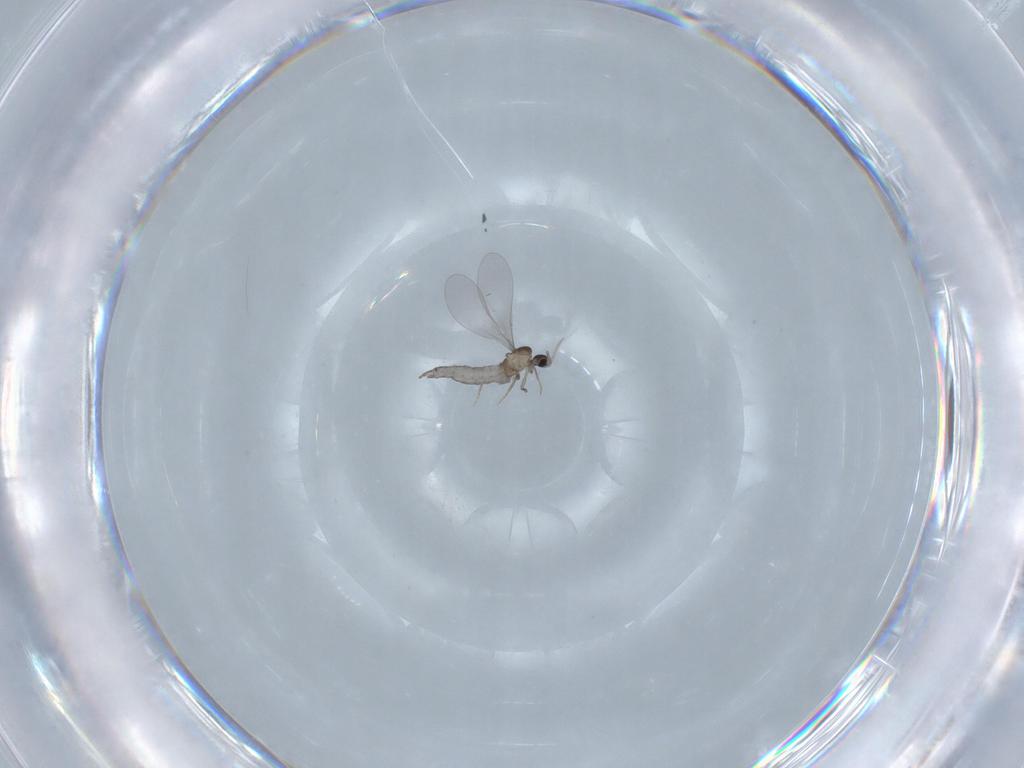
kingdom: Animalia
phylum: Arthropoda
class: Insecta
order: Diptera
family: Cecidomyiidae
